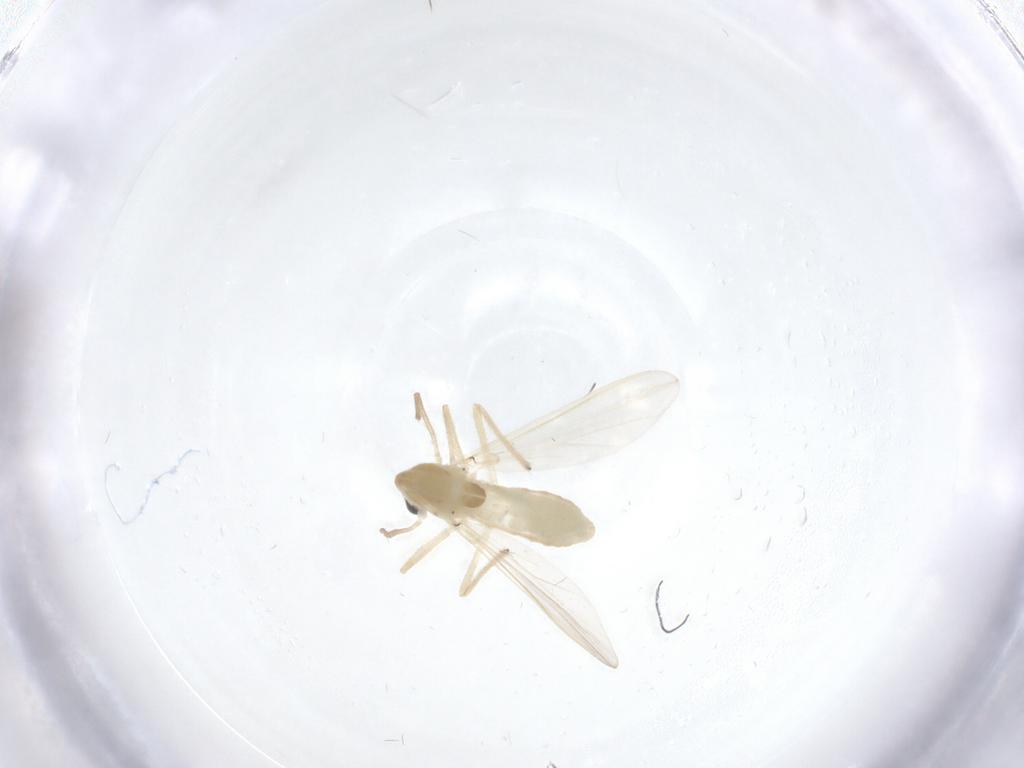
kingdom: Animalia
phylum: Arthropoda
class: Insecta
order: Diptera
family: Chironomidae
